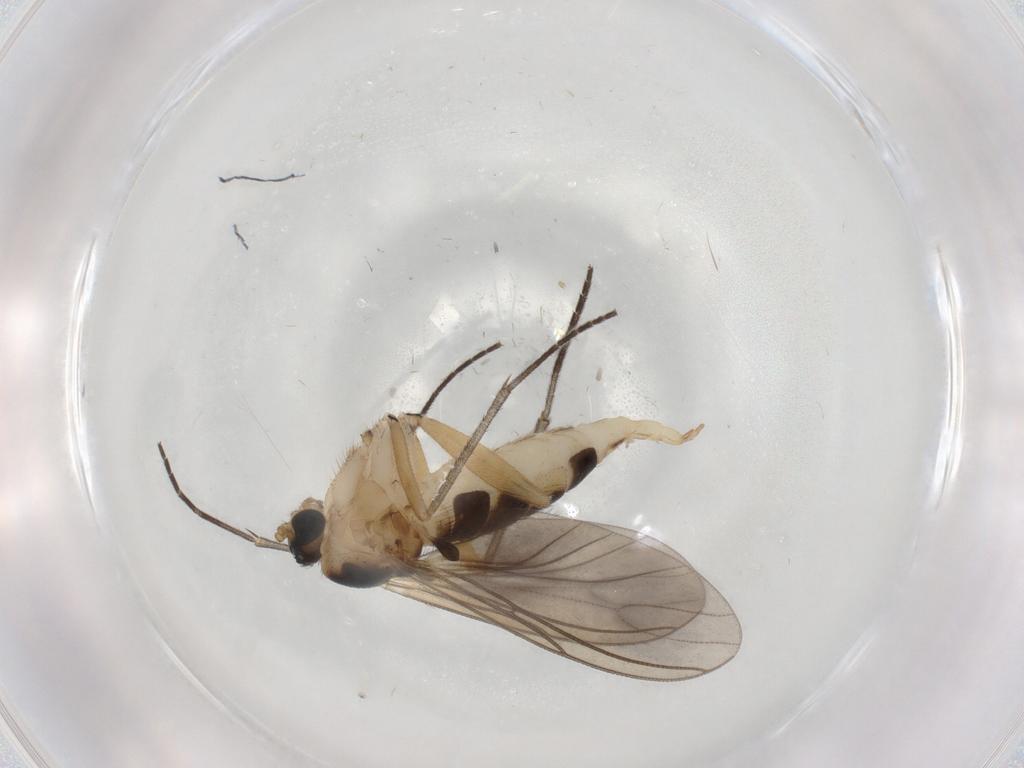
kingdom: Animalia
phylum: Arthropoda
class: Insecta
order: Diptera
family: Sciaridae
